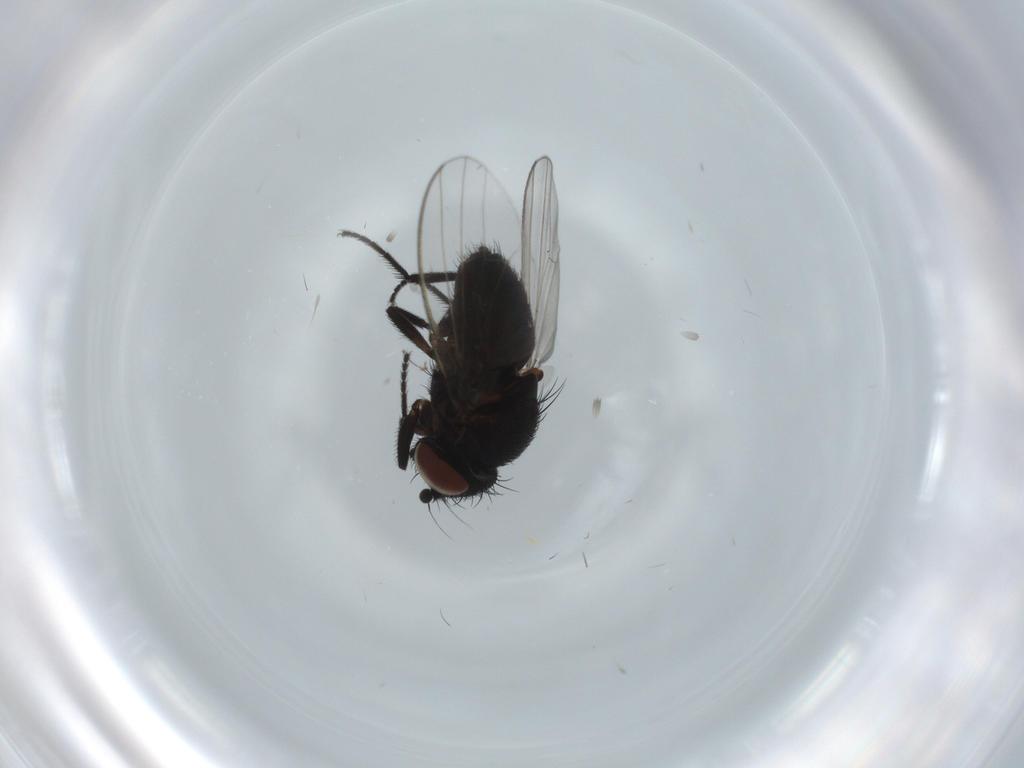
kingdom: Animalia
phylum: Arthropoda
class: Insecta
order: Diptera
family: Milichiidae
